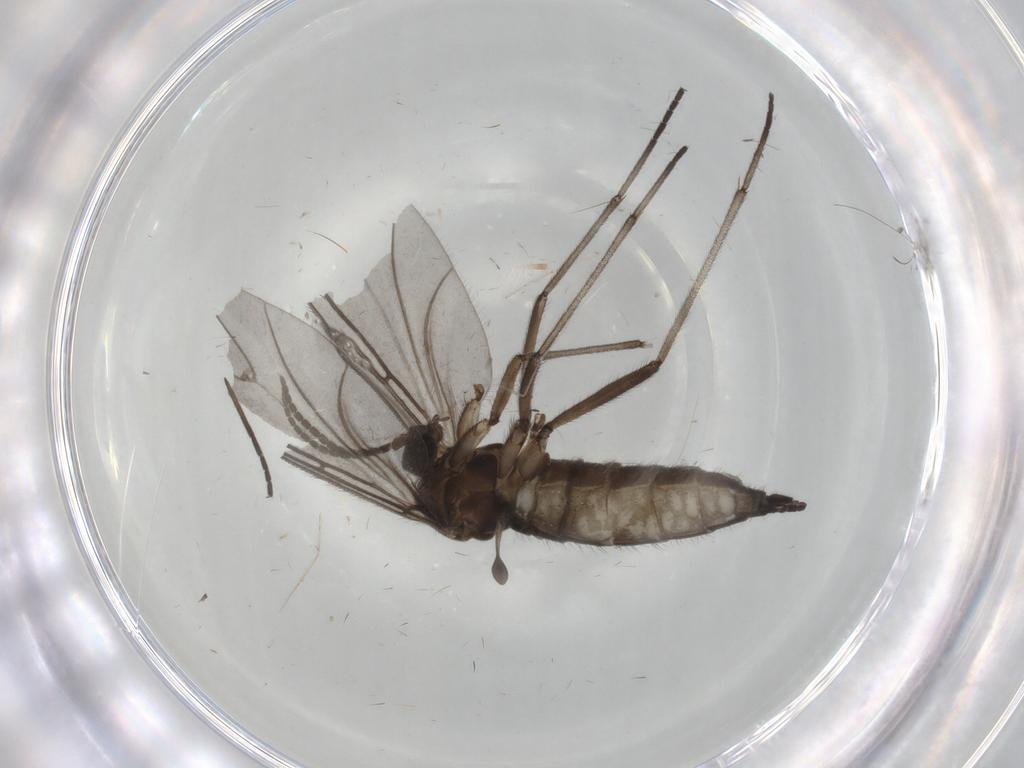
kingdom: Animalia
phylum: Arthropoda
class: Insecta
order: Diptera
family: Sciaridae
